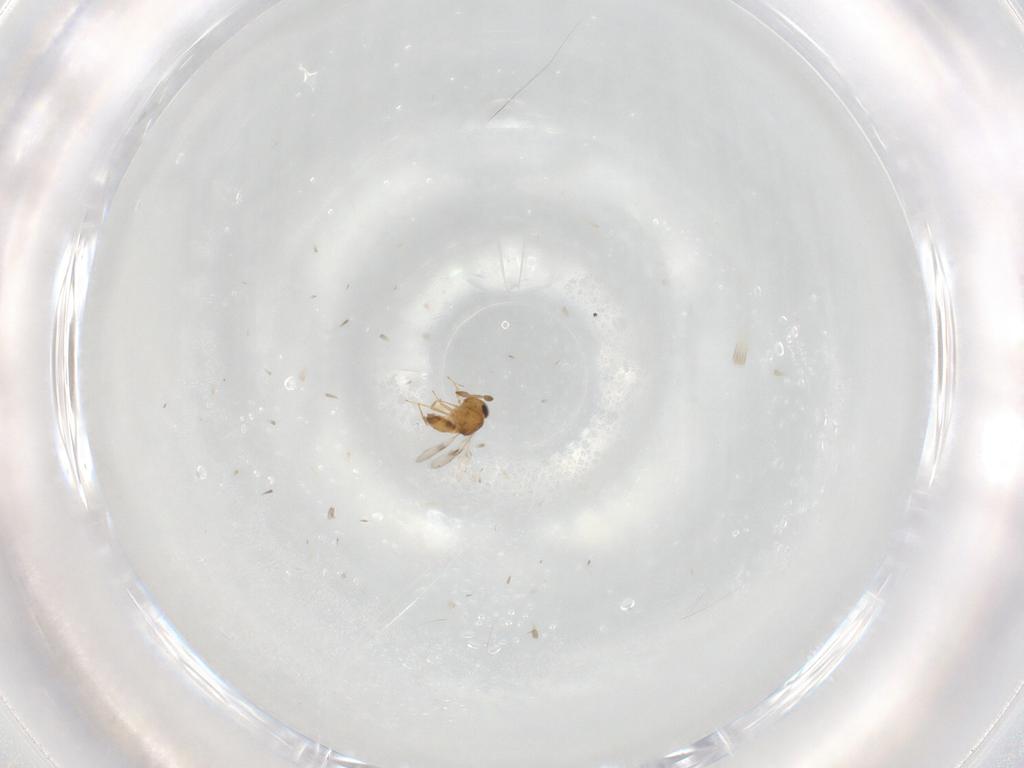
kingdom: Animalia
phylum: Arthropoda
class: Insecta
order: Hymenoptera
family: Scelionidae
